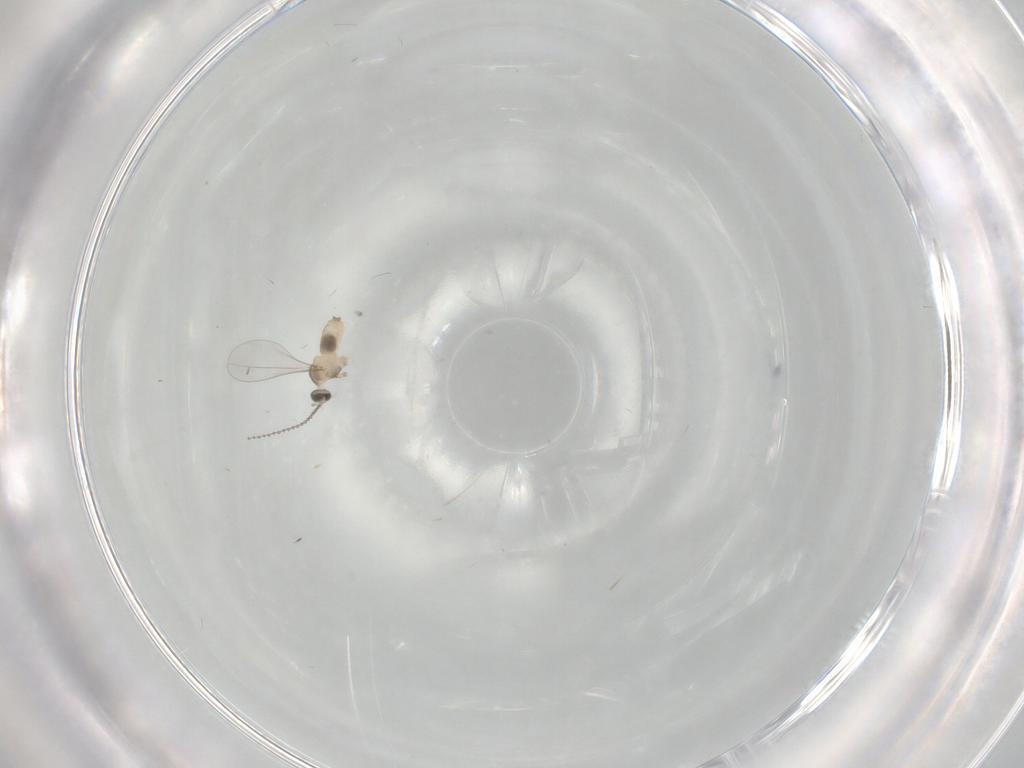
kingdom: Animalia
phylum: Arthropoda
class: Insecta
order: Diptera
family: Cecidomyiidae
